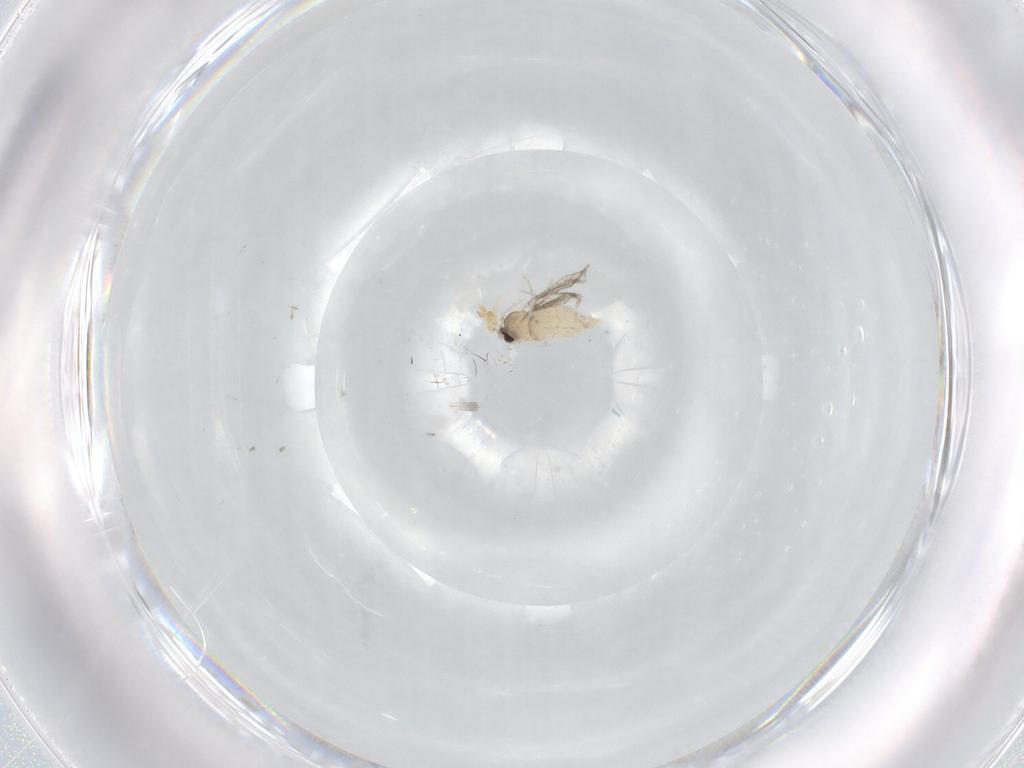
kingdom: Animalia
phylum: Arthropoda
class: Insecta
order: Diptera
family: Cecidomyiidae
